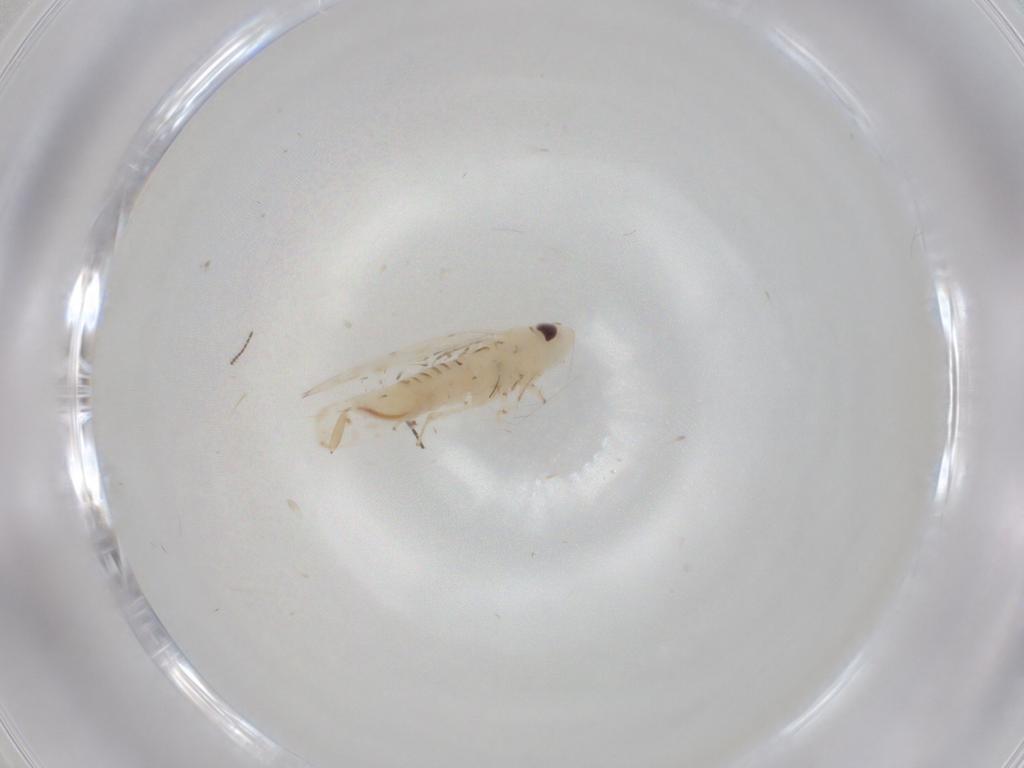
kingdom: Animalia
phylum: Arthropoda
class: Insecta
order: Hemiptera
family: Cicadellidae
